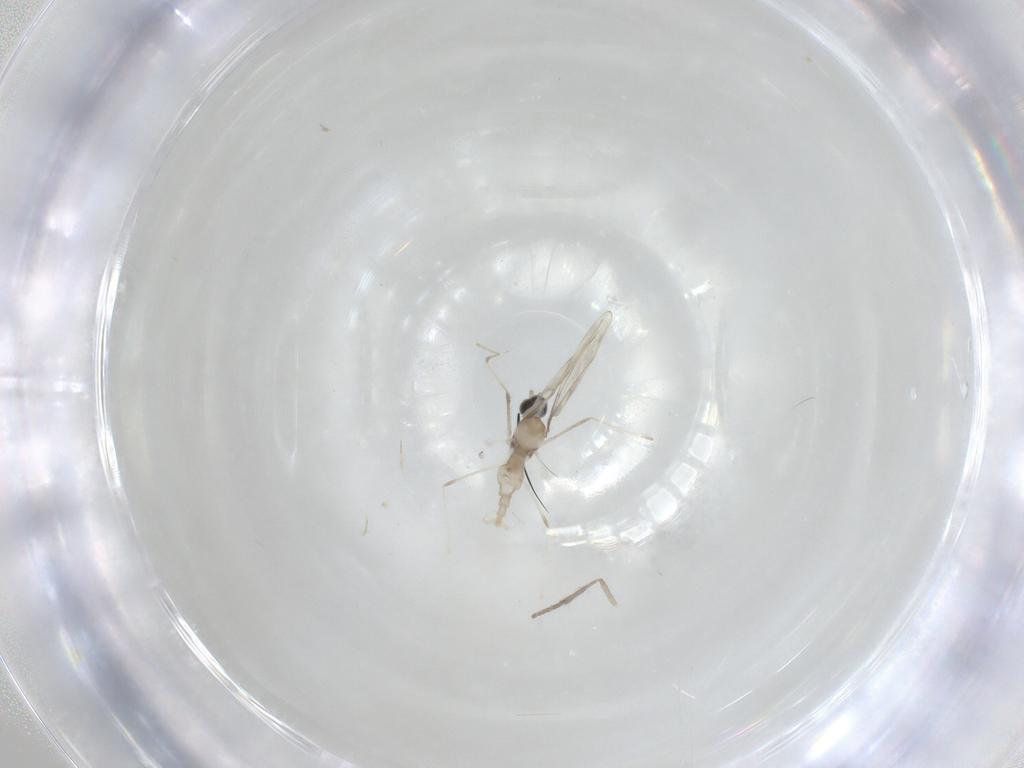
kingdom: Animalia
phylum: Arthropoda
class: Insecta
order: Diptera
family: Cecidomyiidae
